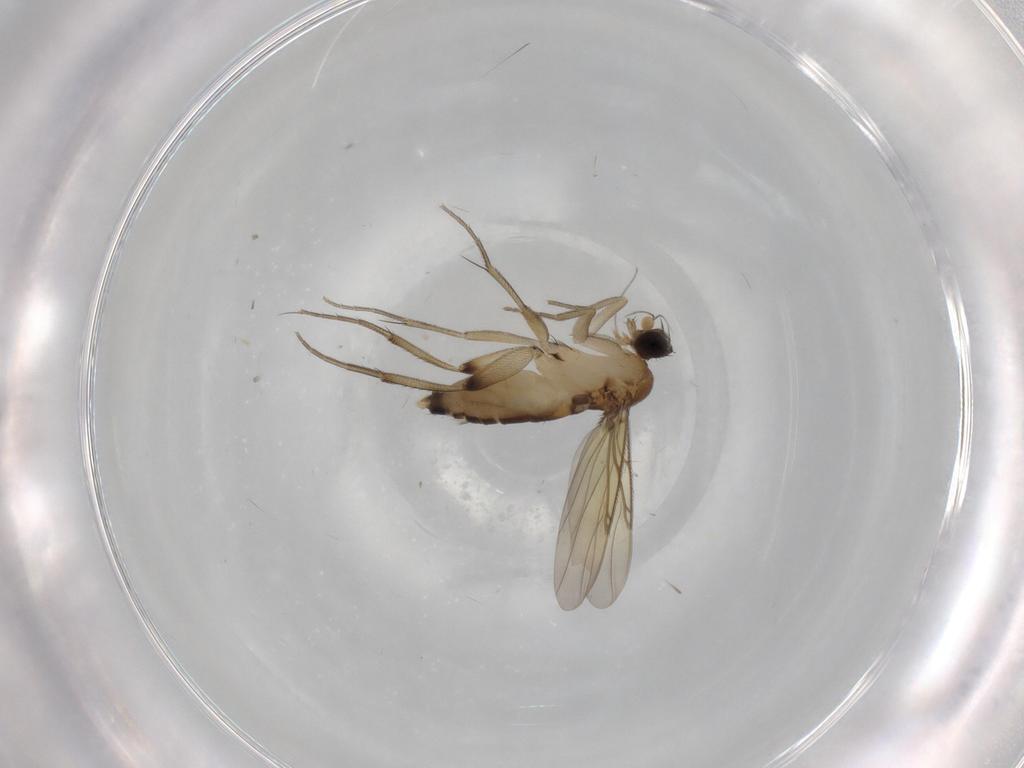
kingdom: Animalia
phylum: Arthropoda
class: Insecta
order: Diptera
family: Phoridae
